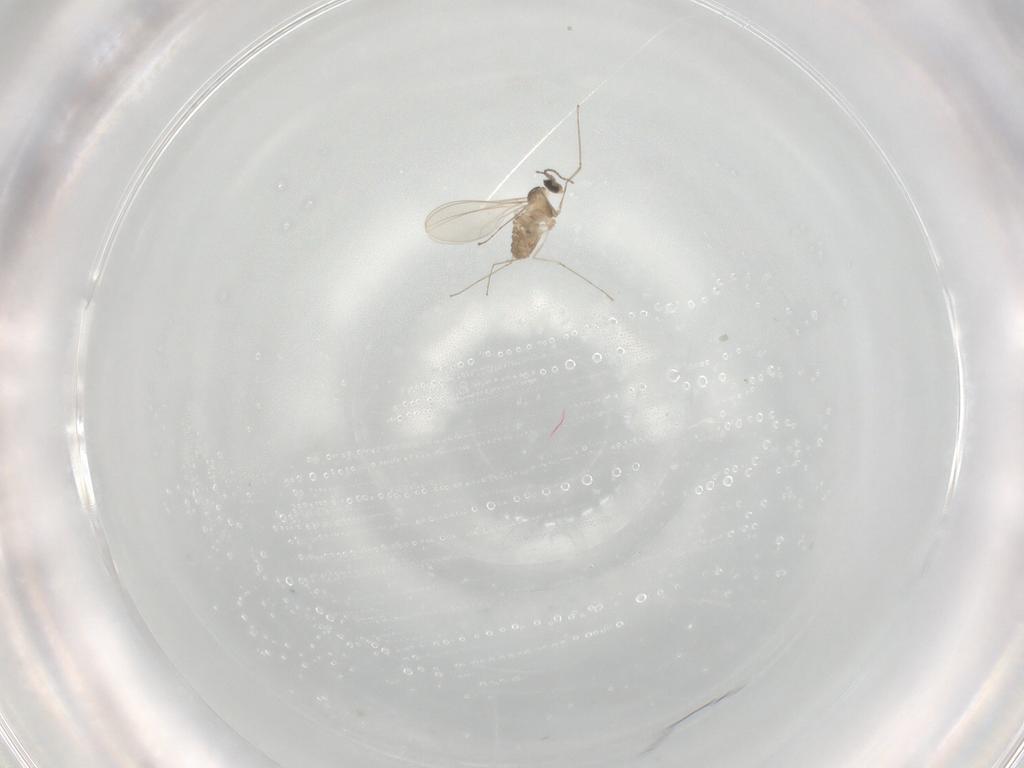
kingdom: Animalia
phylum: Arthropoda
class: Insecta
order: Diptera
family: Cecidomyiidae
